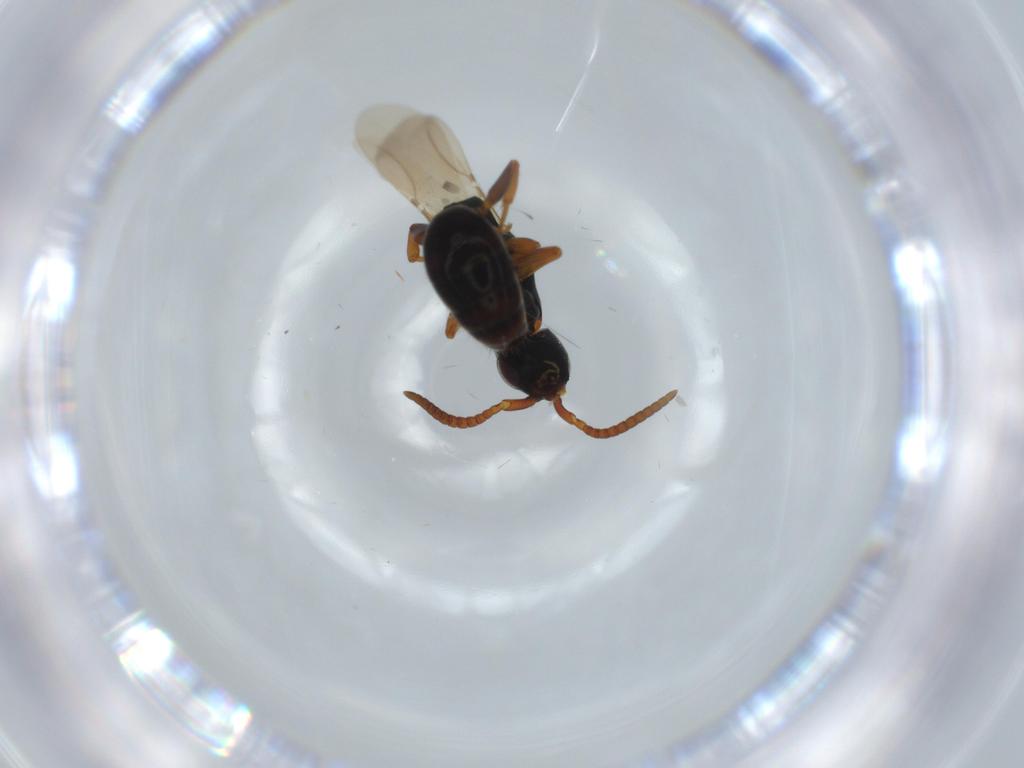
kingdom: Animalia
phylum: Arthropoda
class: Insecta
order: Hymenoptera
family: Bethylidae
